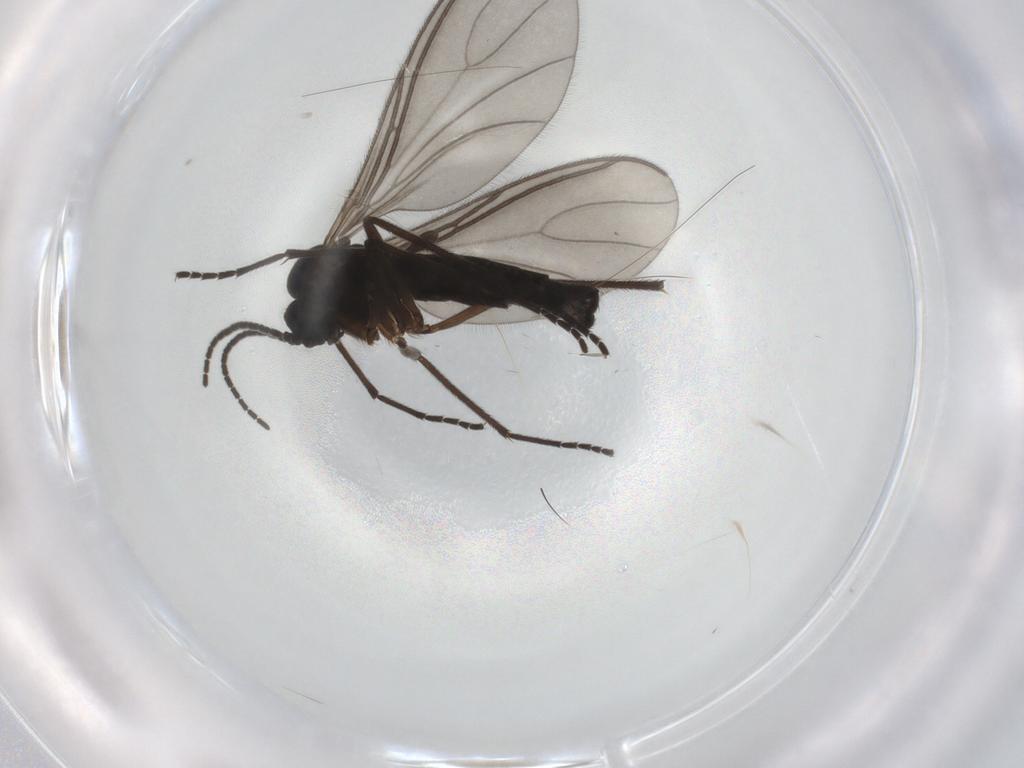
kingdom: Animalia
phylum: Arthropoda
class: Insecta
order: Diptera
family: Sciaridae
